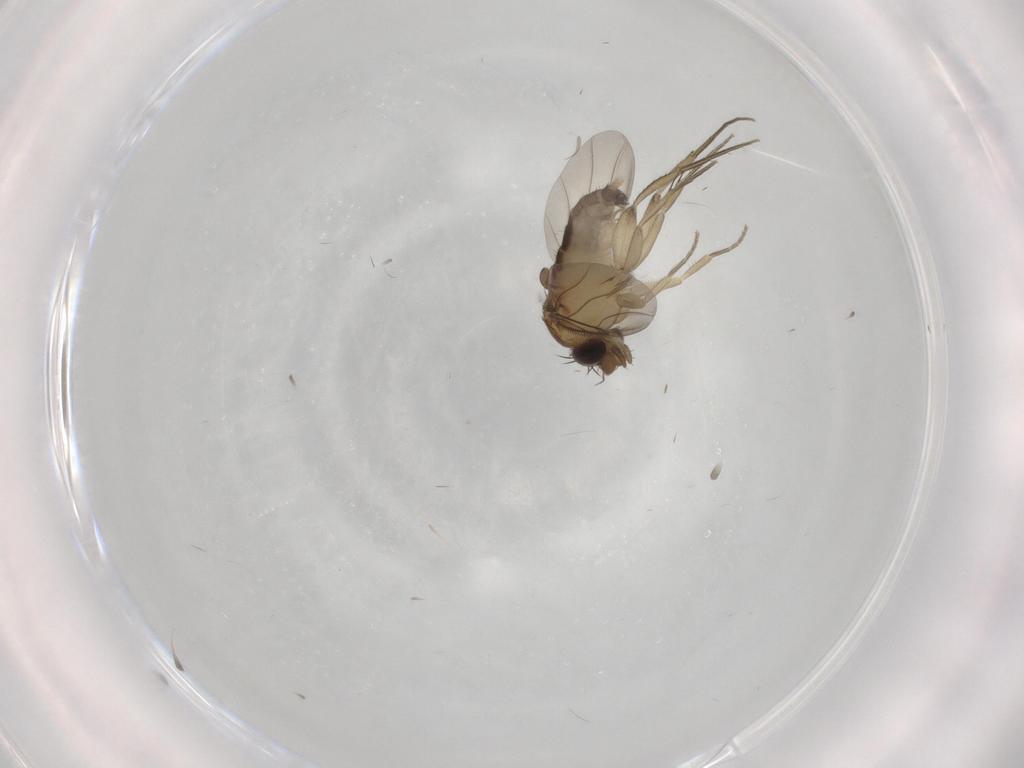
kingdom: Animalia
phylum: Arthropoda
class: Insecta
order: Diptera
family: Phoridae
